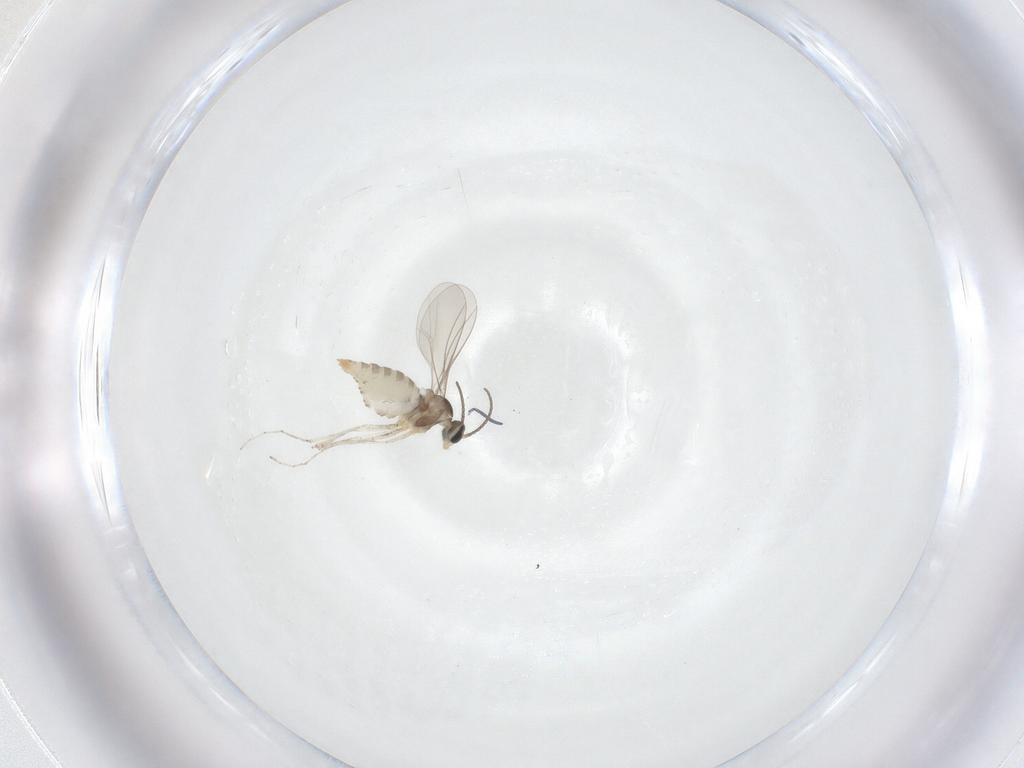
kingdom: Animalia
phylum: Arthropoda
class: Insecta
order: Diptera
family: Cecidomyiidae
